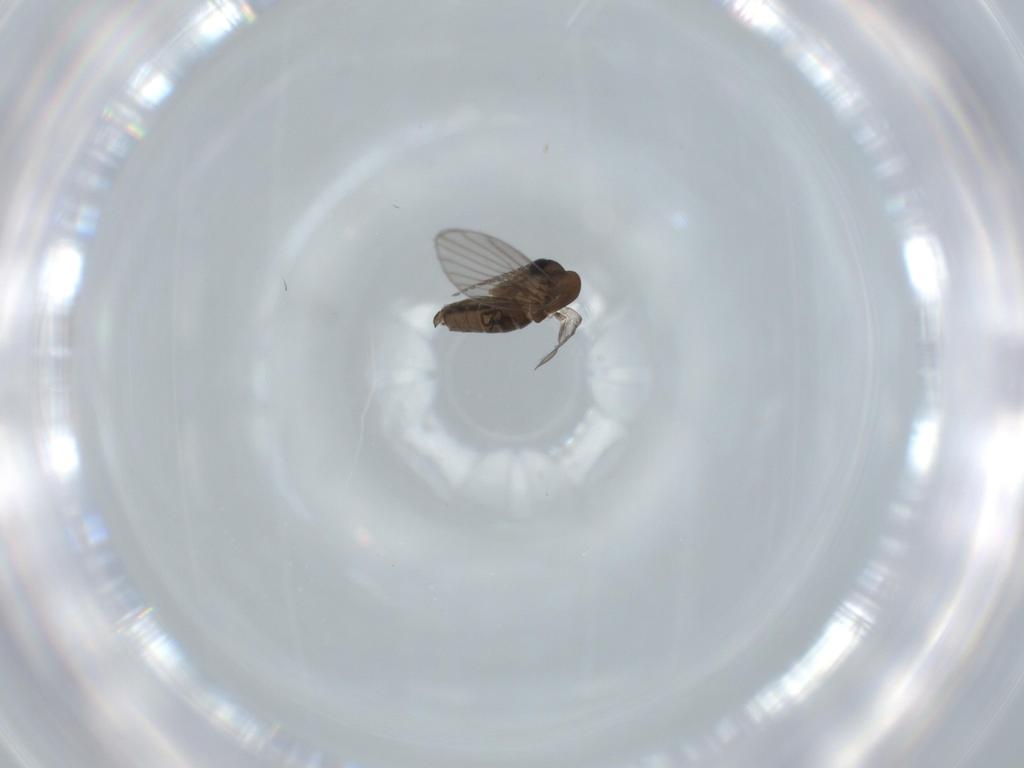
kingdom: Animalia
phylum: Arthropoda
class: Insecta
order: Diptera
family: Psychodidae
